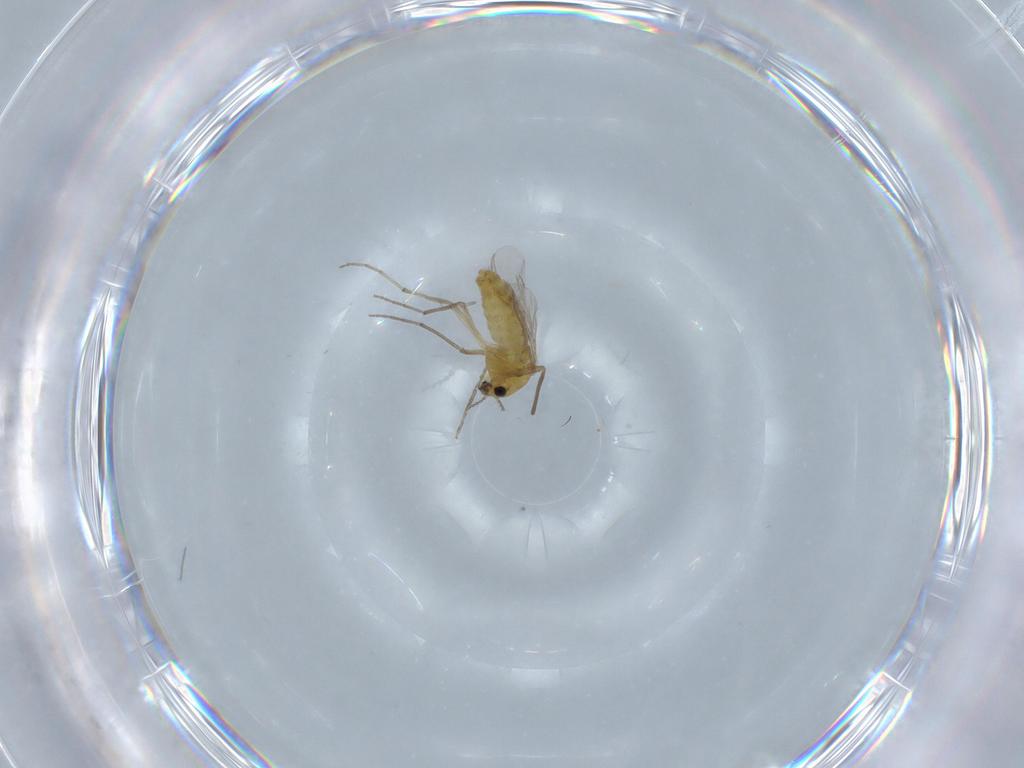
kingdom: Animalia
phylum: Arthropoda
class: Insecta
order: Diptera
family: Chironomidae
